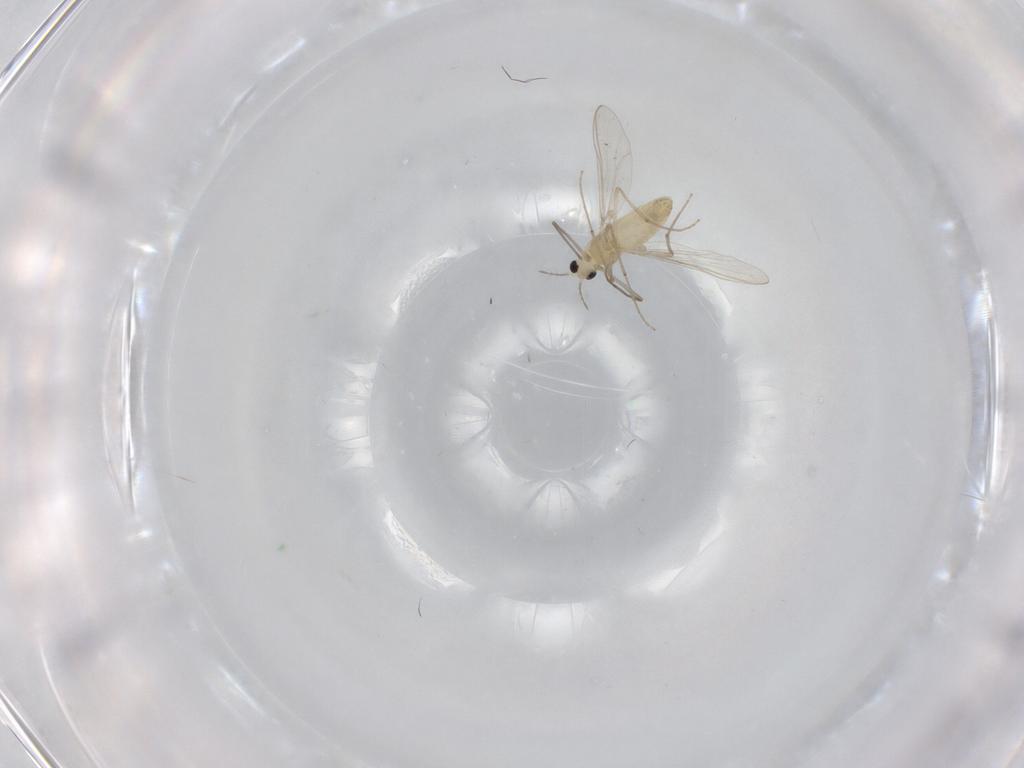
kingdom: Animalia
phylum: Arthropoda
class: Insecta
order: Diptera
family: Chironomidae
